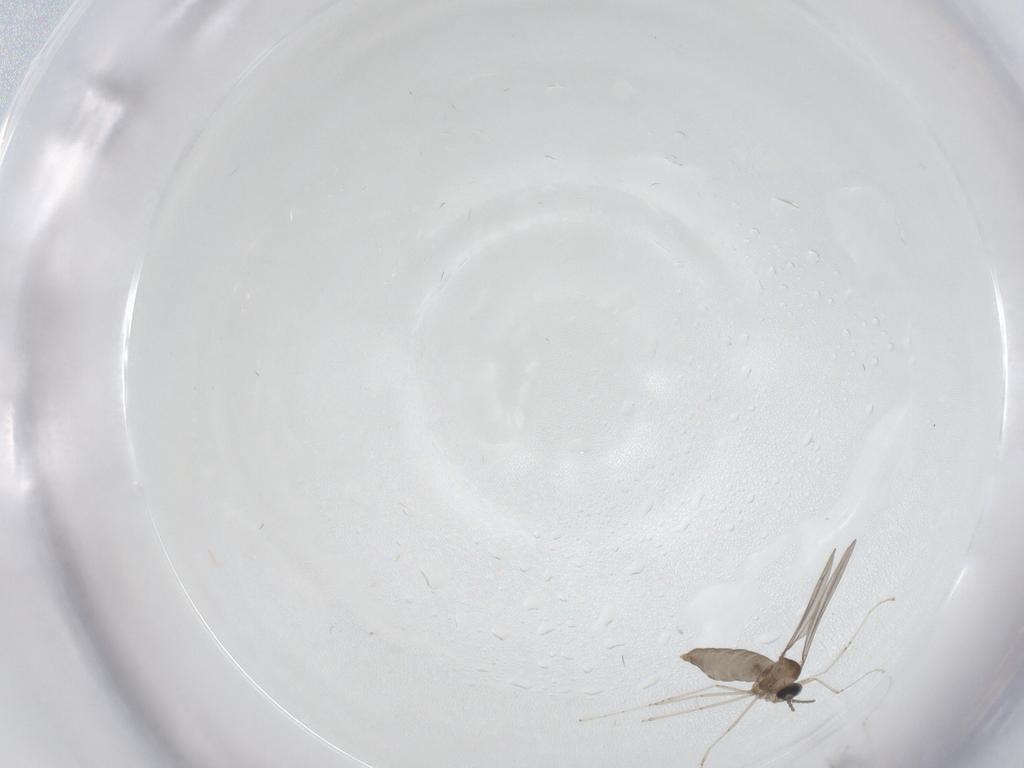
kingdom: Animalia
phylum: Arthropoda
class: Insecta
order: Diptera
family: Cecidomyiidae
